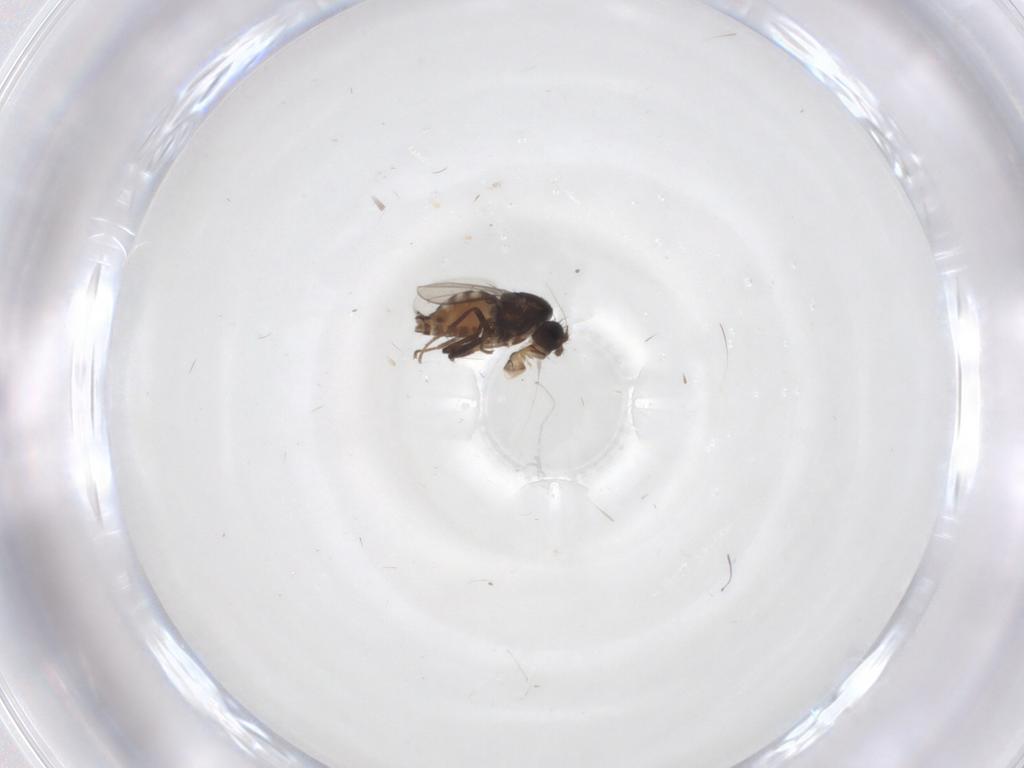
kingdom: Animalia
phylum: Arthropoda
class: Insecta
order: Diptera
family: Sphaeroceridae
